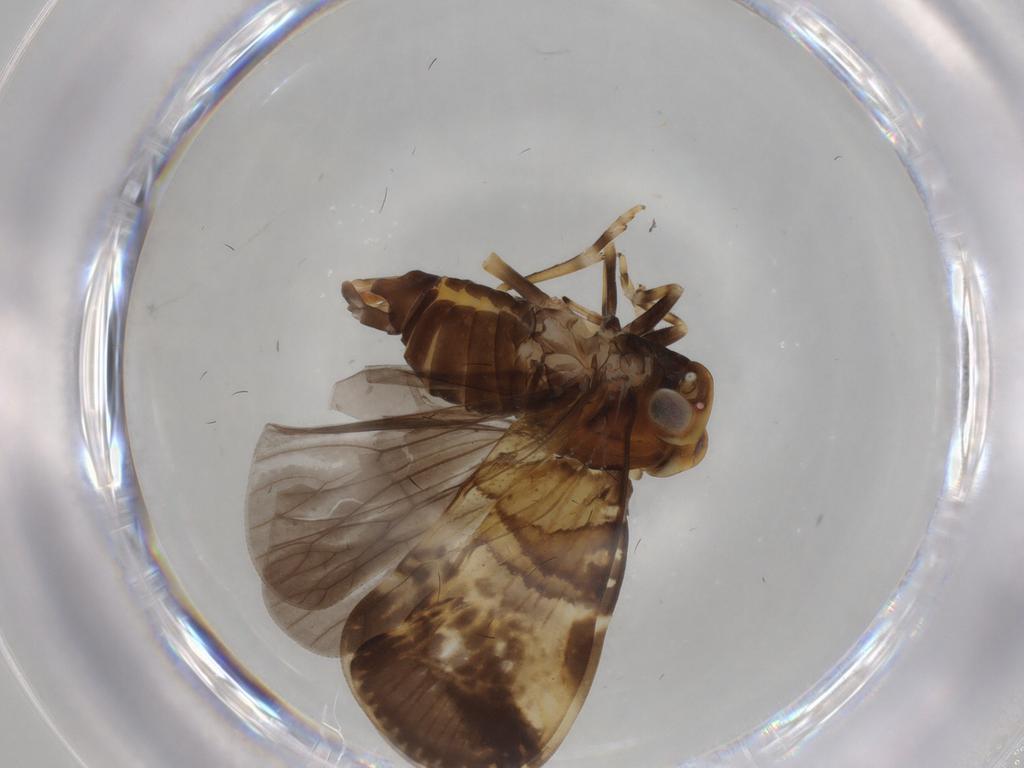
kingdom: Animalia
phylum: Arthropoda
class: Insecta
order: Hemiptera
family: Cixiidae
